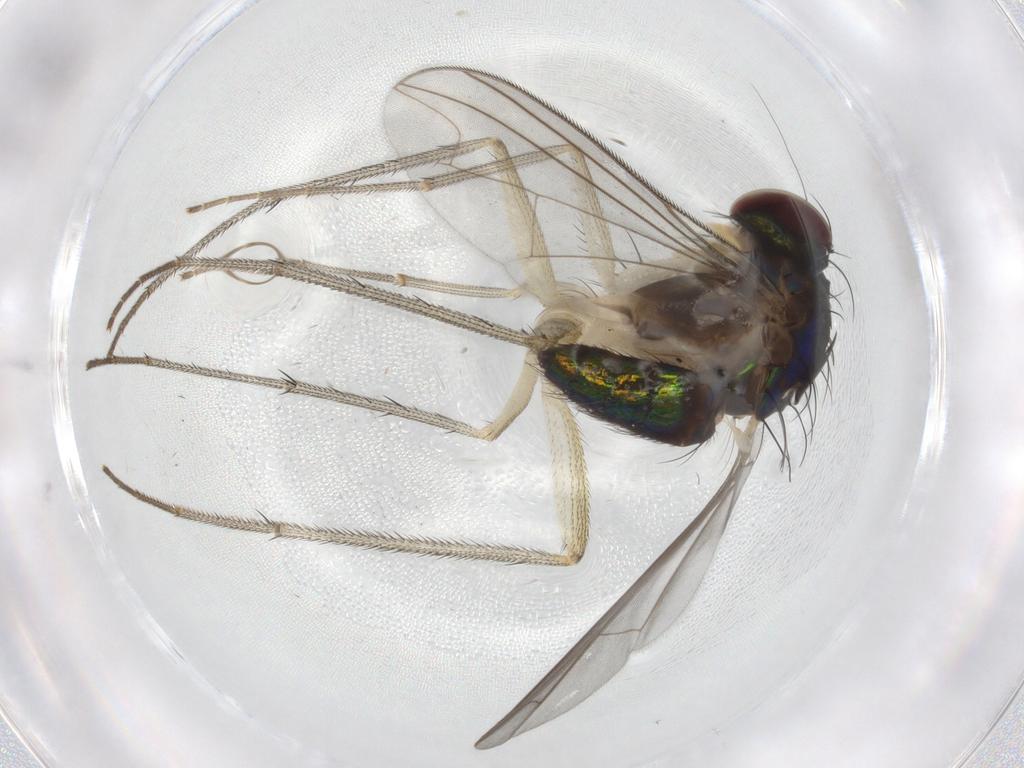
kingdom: Animalia
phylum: Arthropoda
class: Insecta
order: Diptera
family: Dolichopodidae
